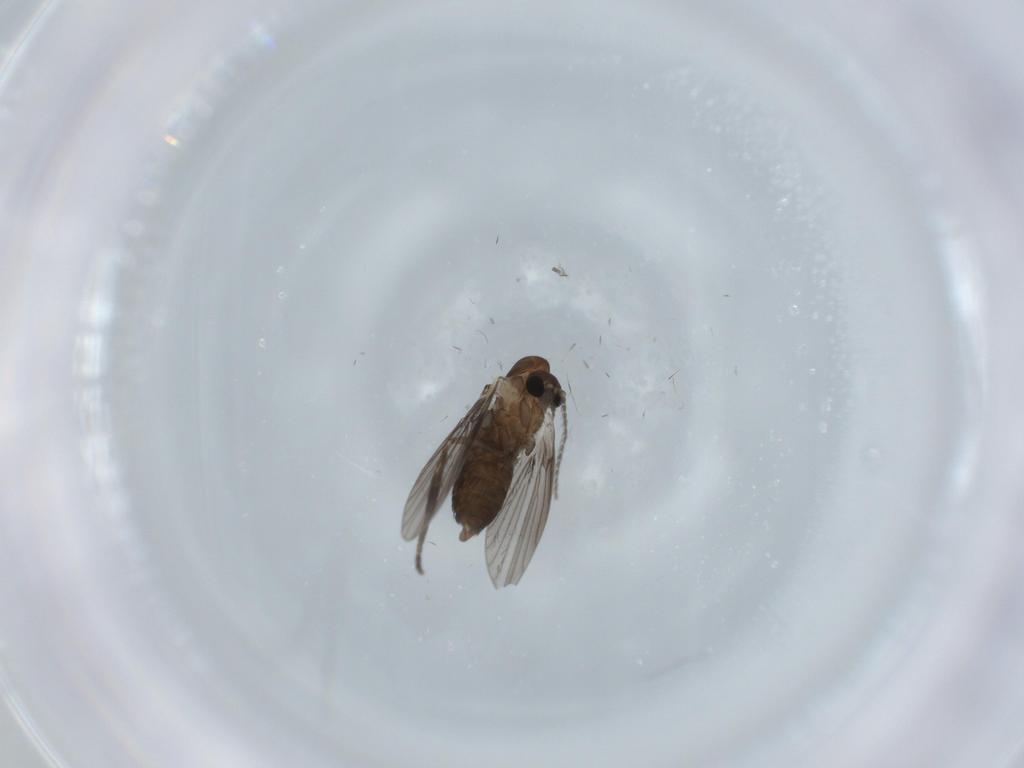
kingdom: Animalia
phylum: Arthropoda
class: Insecta
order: Diptera
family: Psychodidae
